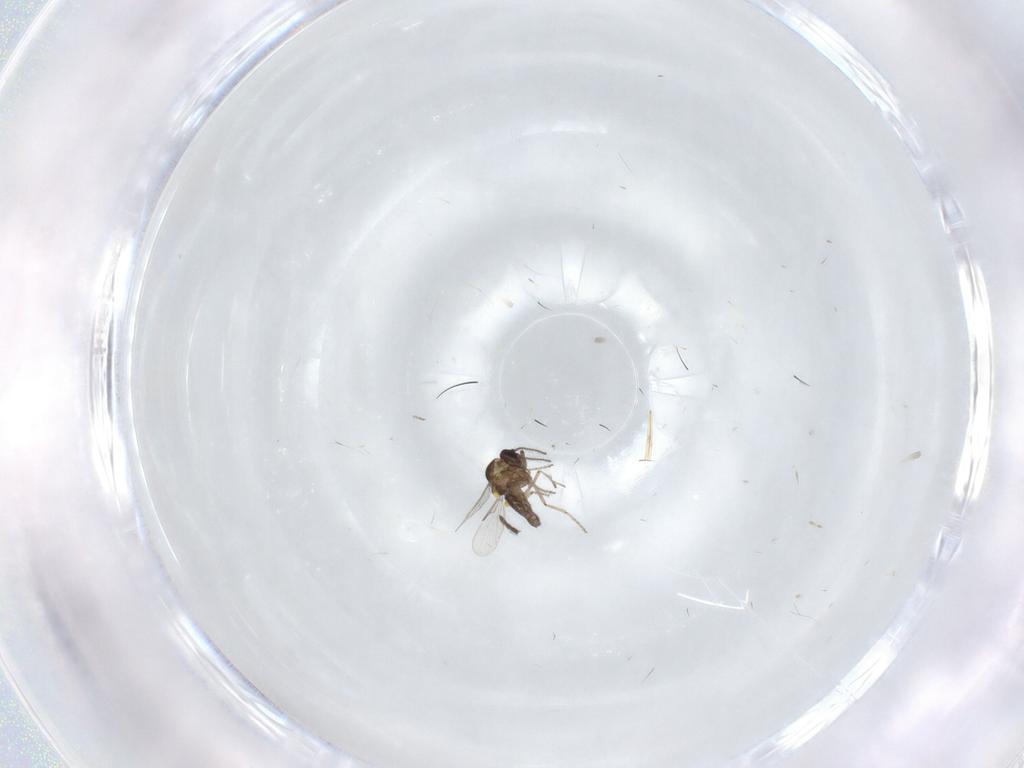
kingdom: Animalia
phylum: Arthropoda
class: Insecta
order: Diptera
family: Ceratopogonidae
